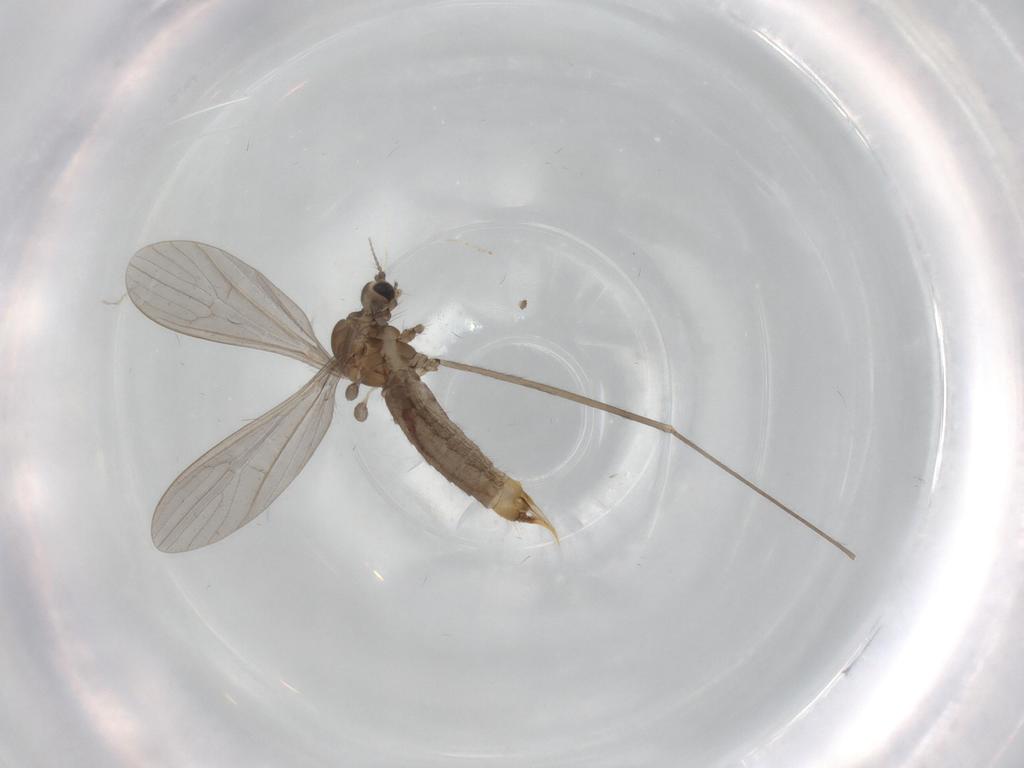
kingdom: Animalia
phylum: Arthropoda
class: Insecta
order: Diptera
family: Limoniidae
